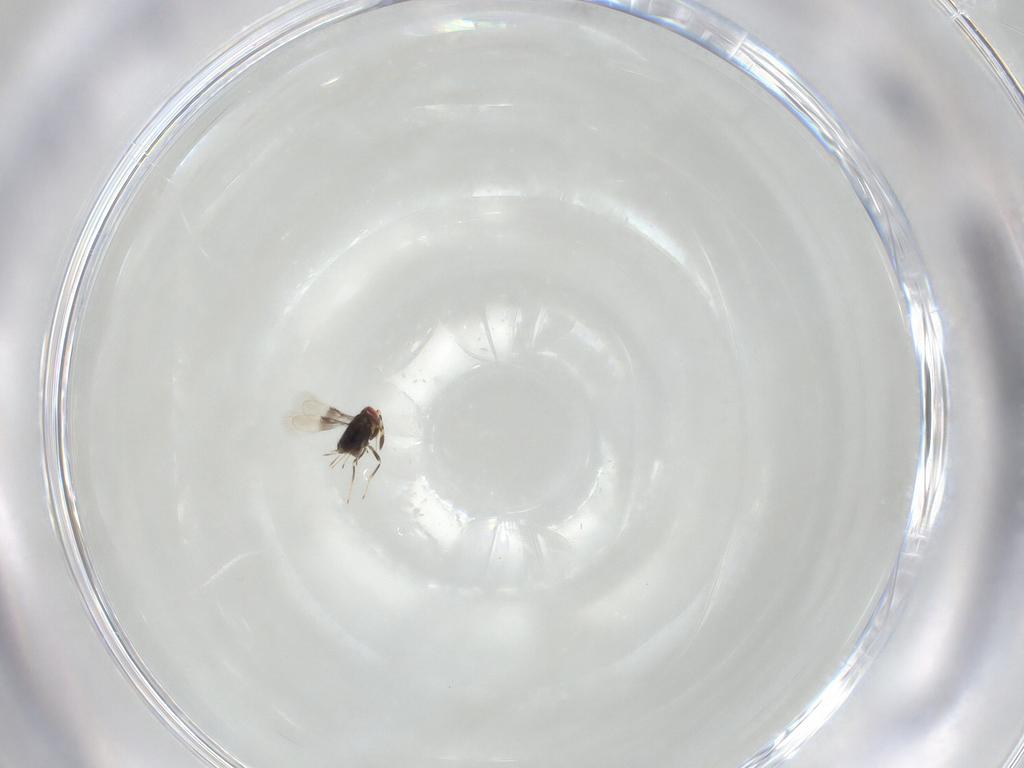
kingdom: Animalia
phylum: Arthropoda
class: Insecta
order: Hymenoptera
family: Azotidae
